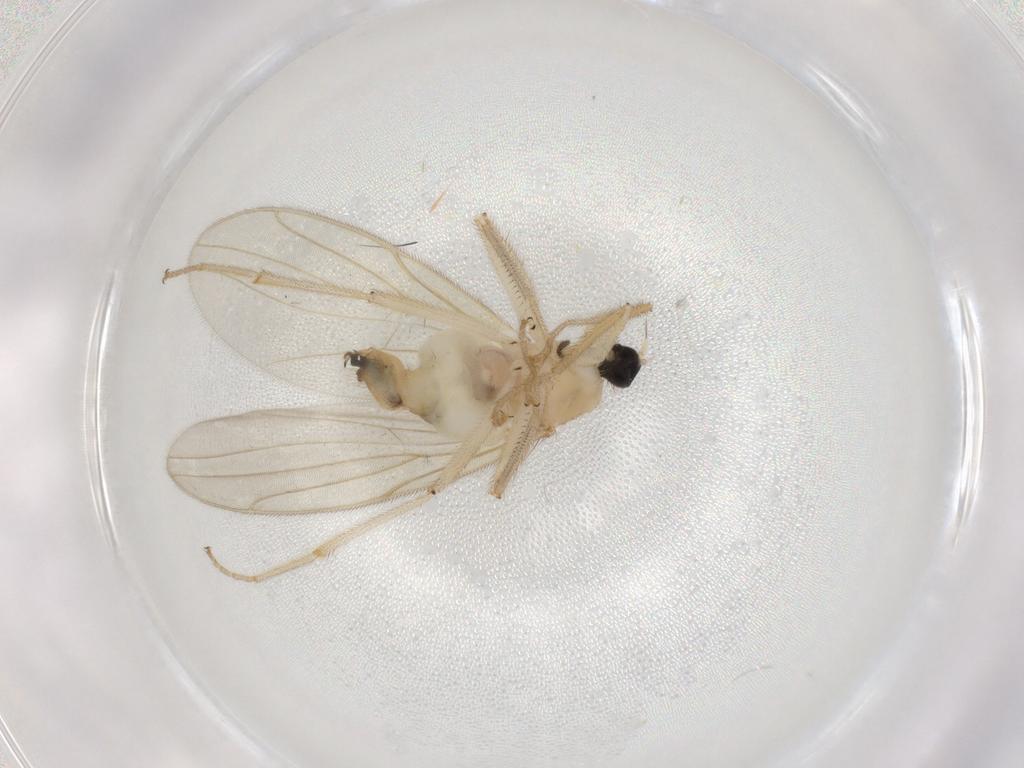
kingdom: Animalia
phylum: Arthropoda
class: Insecta
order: Diptera
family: Hybotidae
